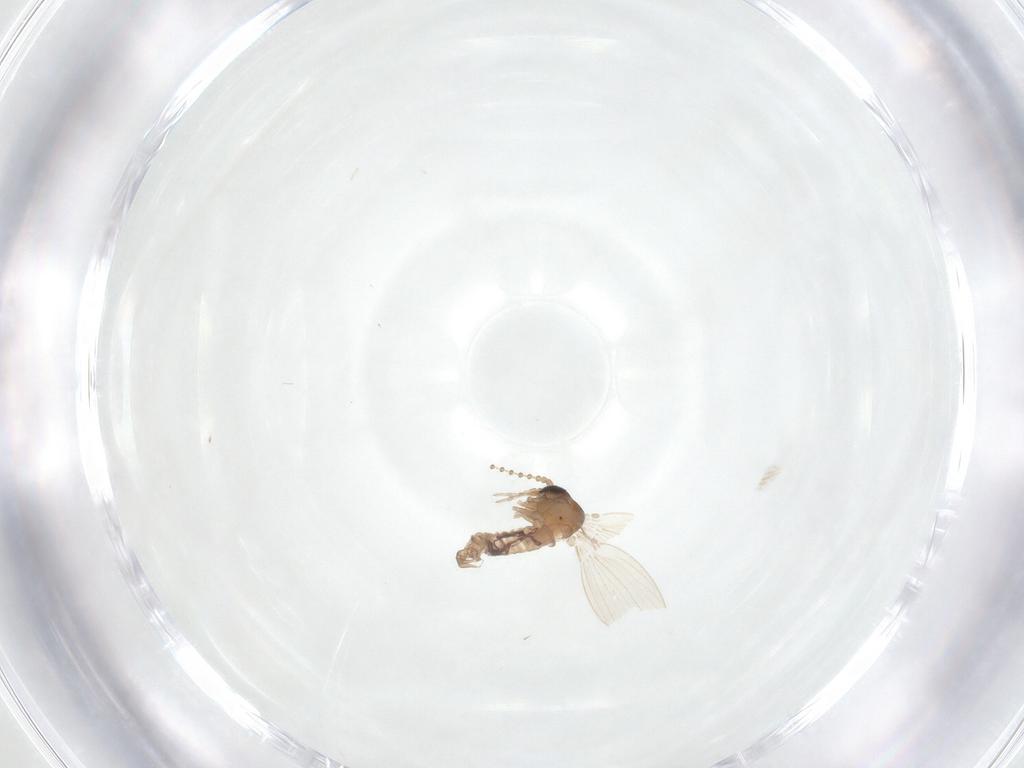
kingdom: Animalia
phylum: Arthropoda
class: Insecta
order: Diptera
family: Psychodidae
